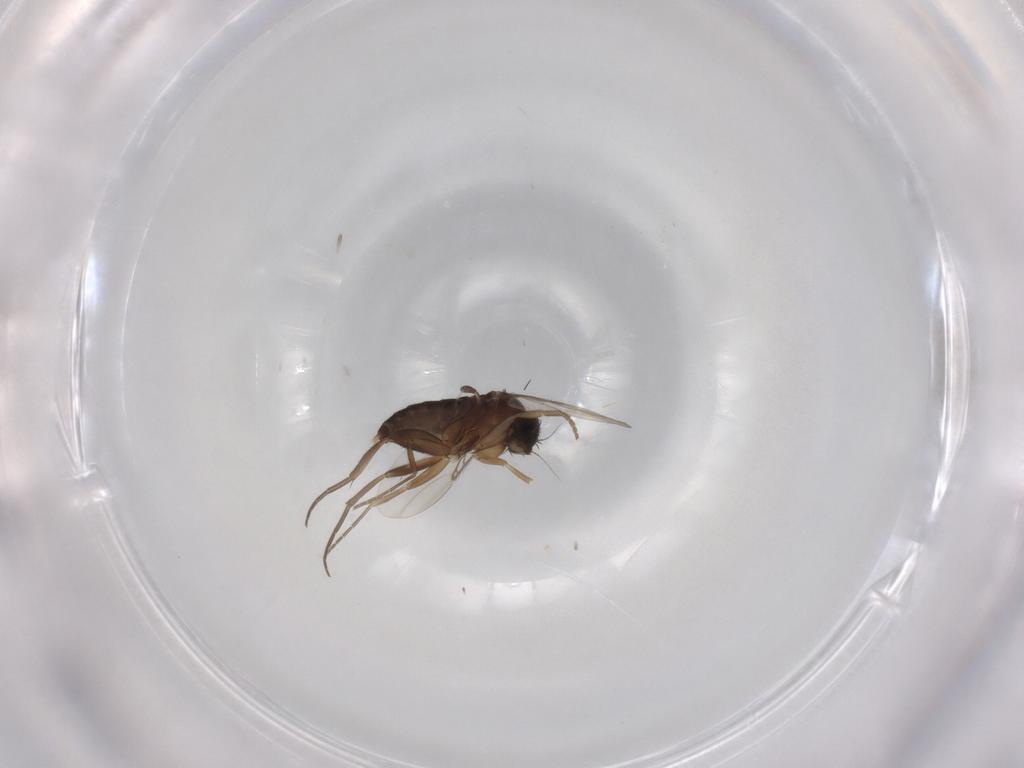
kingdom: Animalia
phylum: Arthropoda
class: Insecta
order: Diptera
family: Phoridae
